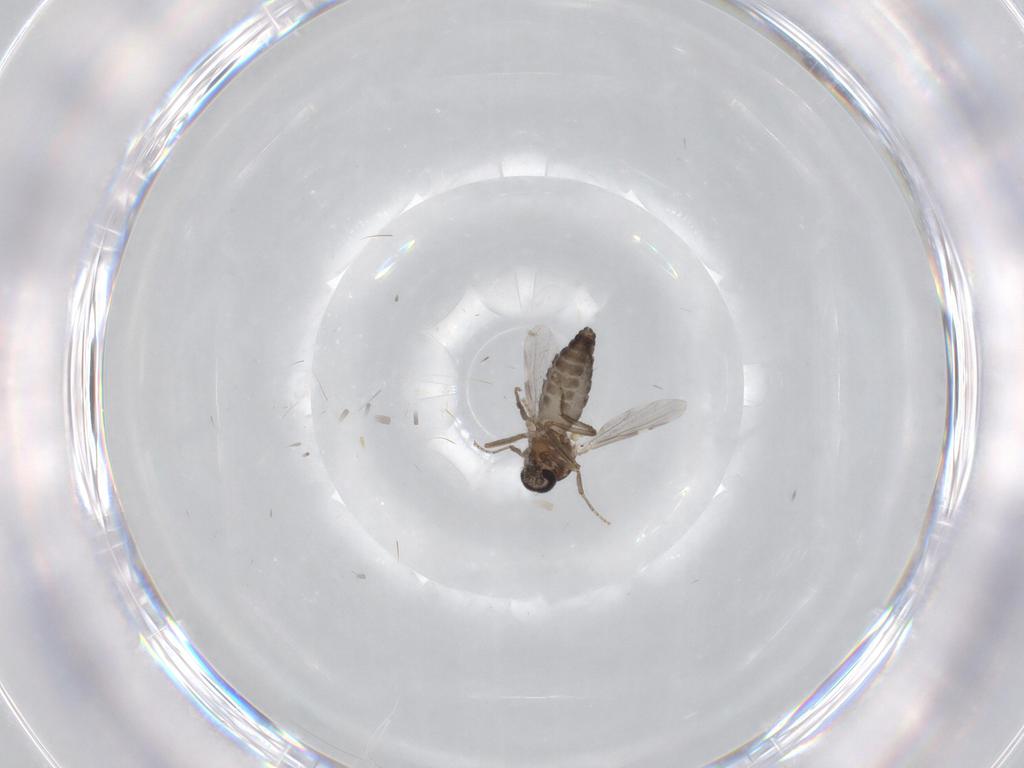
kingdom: Animalia
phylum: Arthropoda
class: Insecta
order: Diptera
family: Ceratopogonidae
